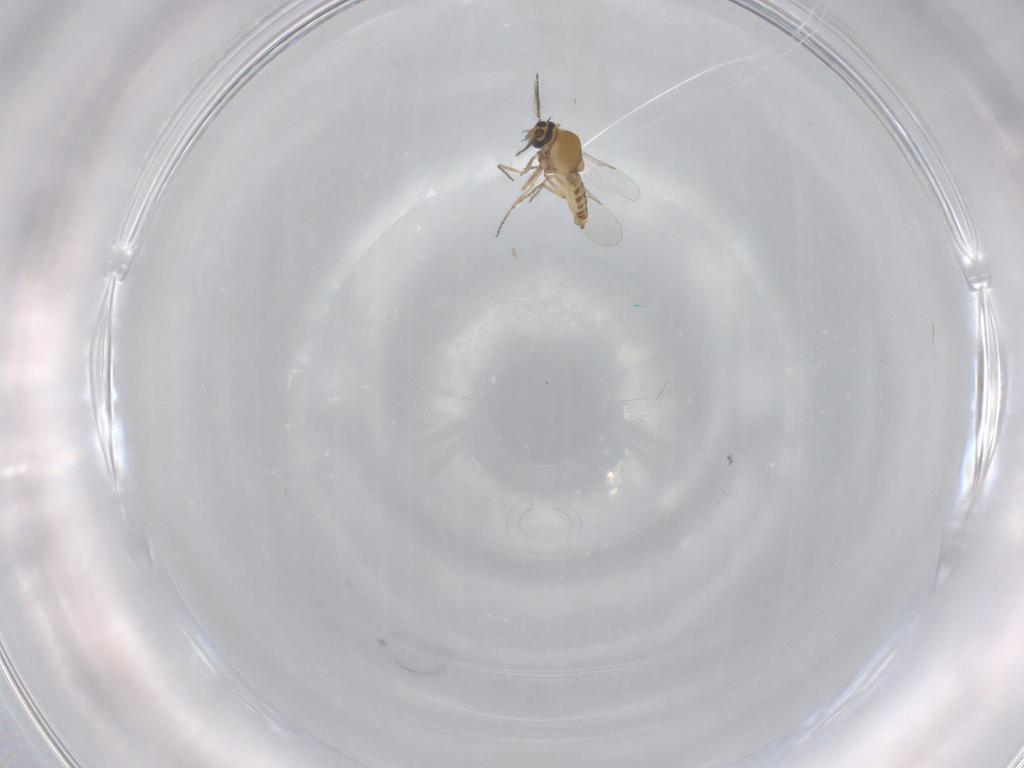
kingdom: Animalia
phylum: Arthropoda
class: Insecta
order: Diptera
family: Ceratopogonidae
